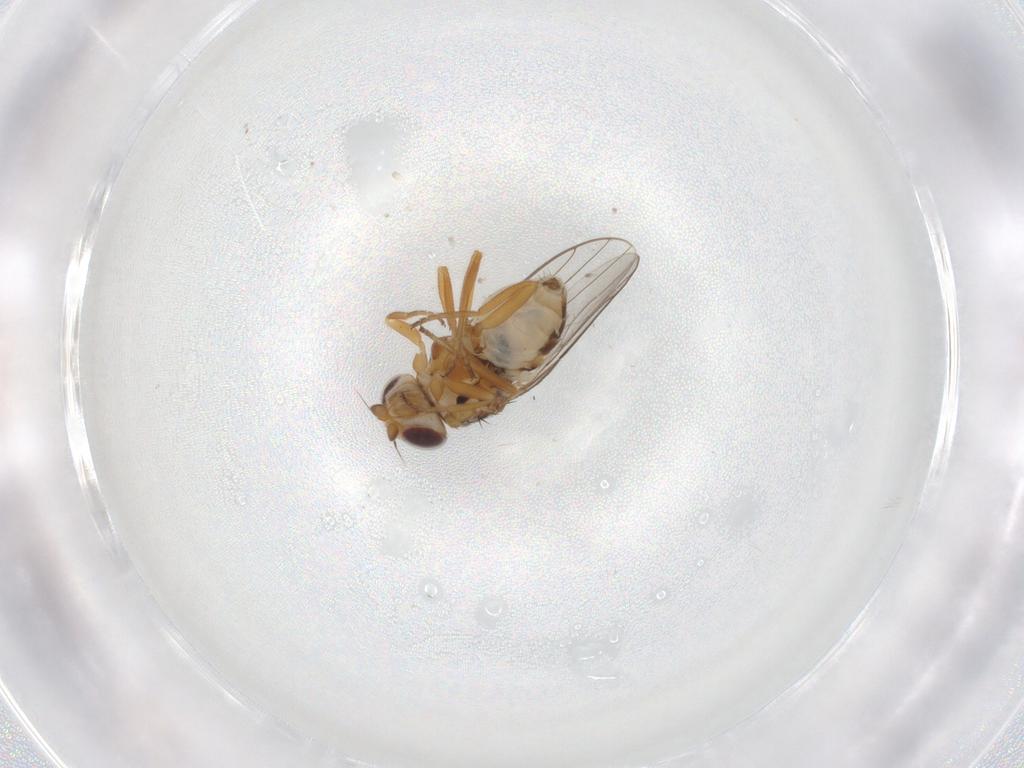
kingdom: Animalia
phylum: Arthropoda
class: Insecta
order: Diptera
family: Chloropidae
